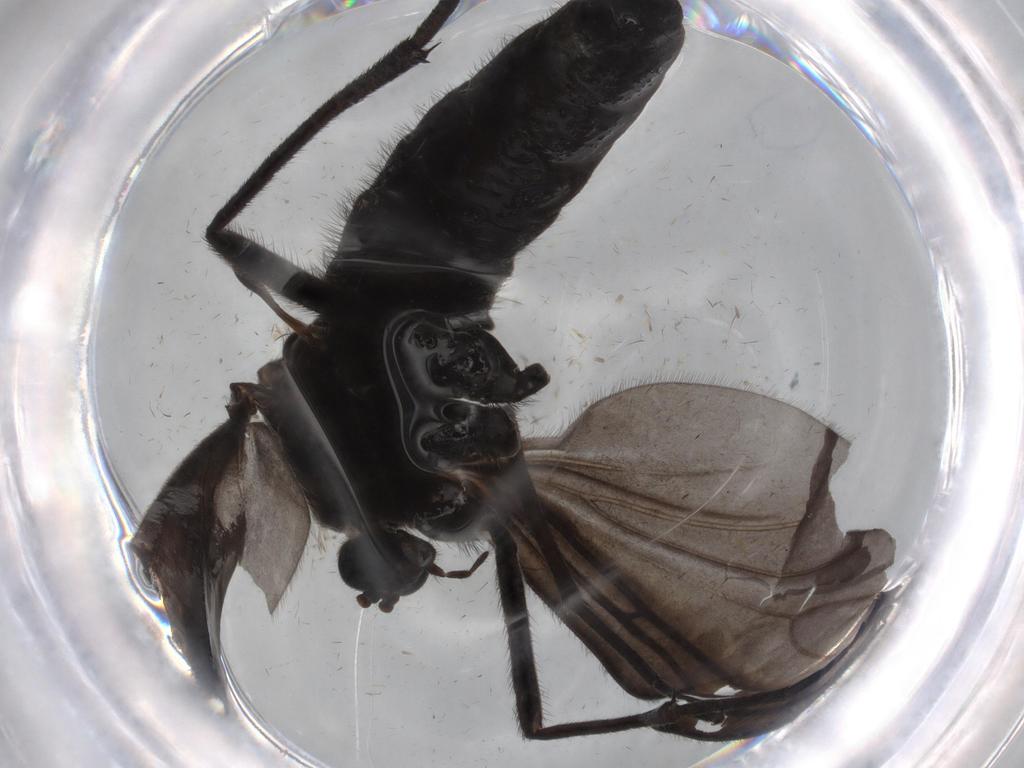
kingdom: Animalia
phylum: Arthropoda
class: Insecta
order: Diptera
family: Sciaridae
